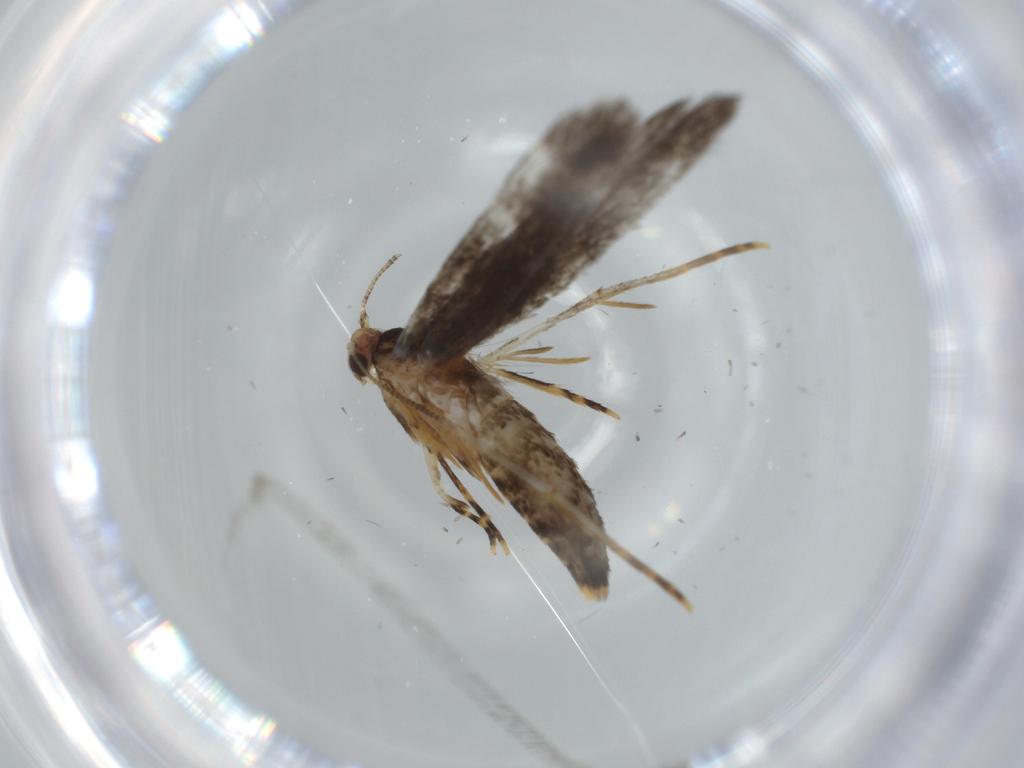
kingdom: Animalia
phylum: Arthropoda
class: Insecta
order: Lepidoptera
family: Tineidae
